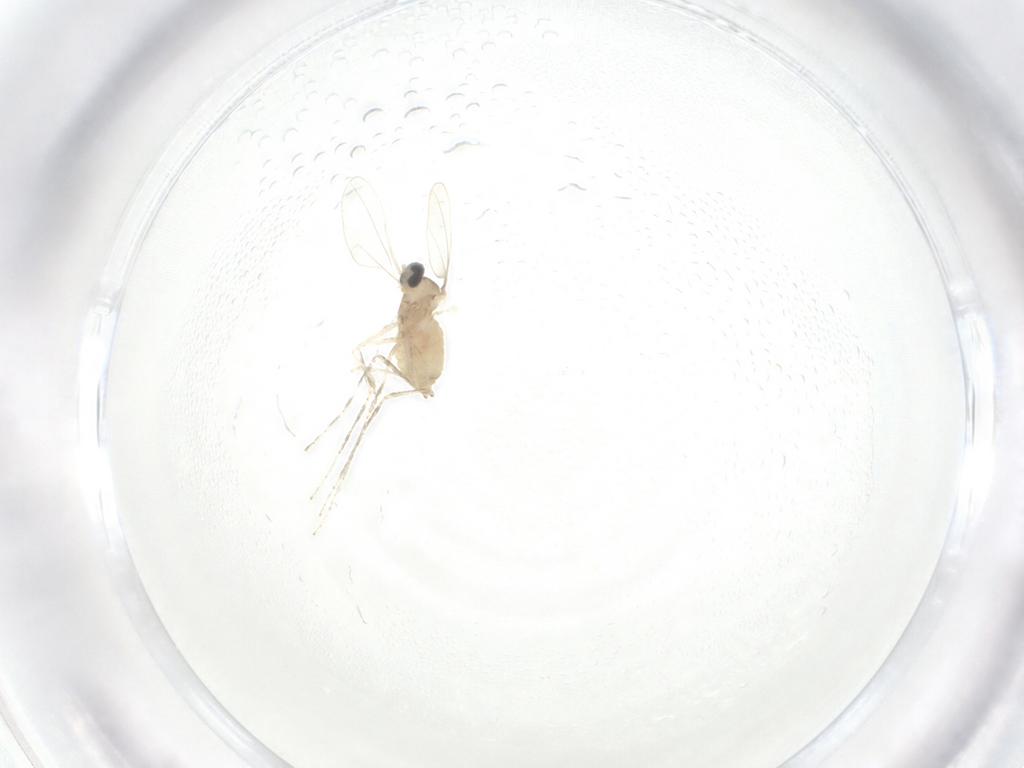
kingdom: Animalia
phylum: Arthropoda
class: Insecta
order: Diptera
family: Cecidomyiidae
